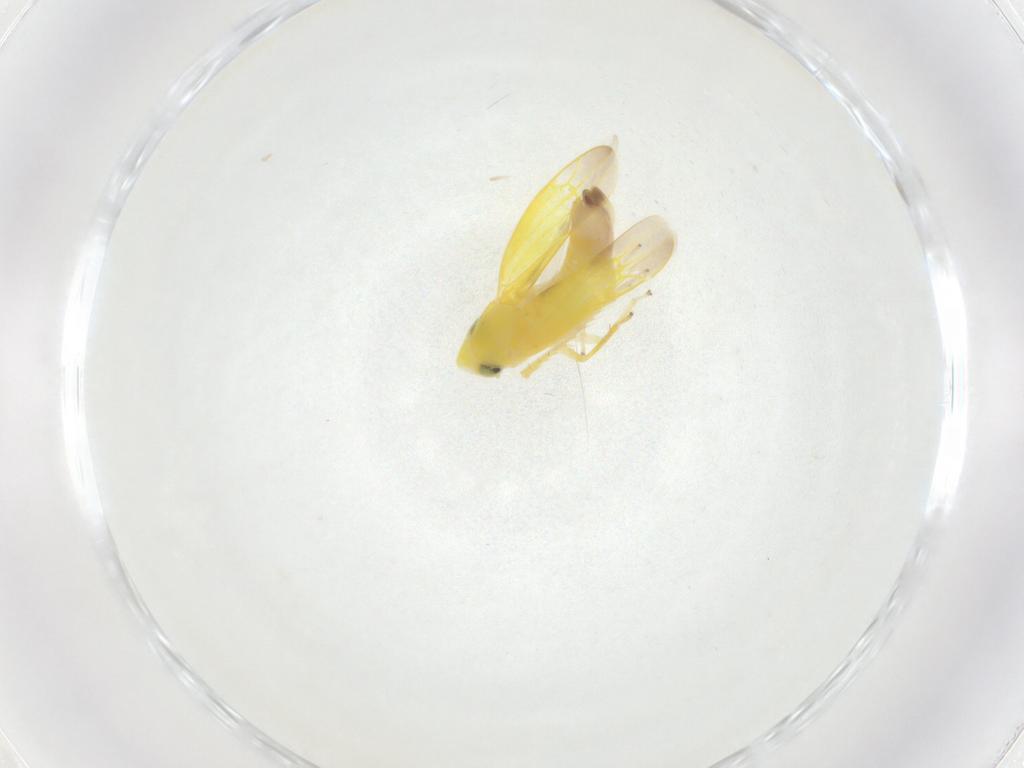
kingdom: Animalia
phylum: Arthropoda
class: Insecta
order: Hemiptera
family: Cicadellidae
